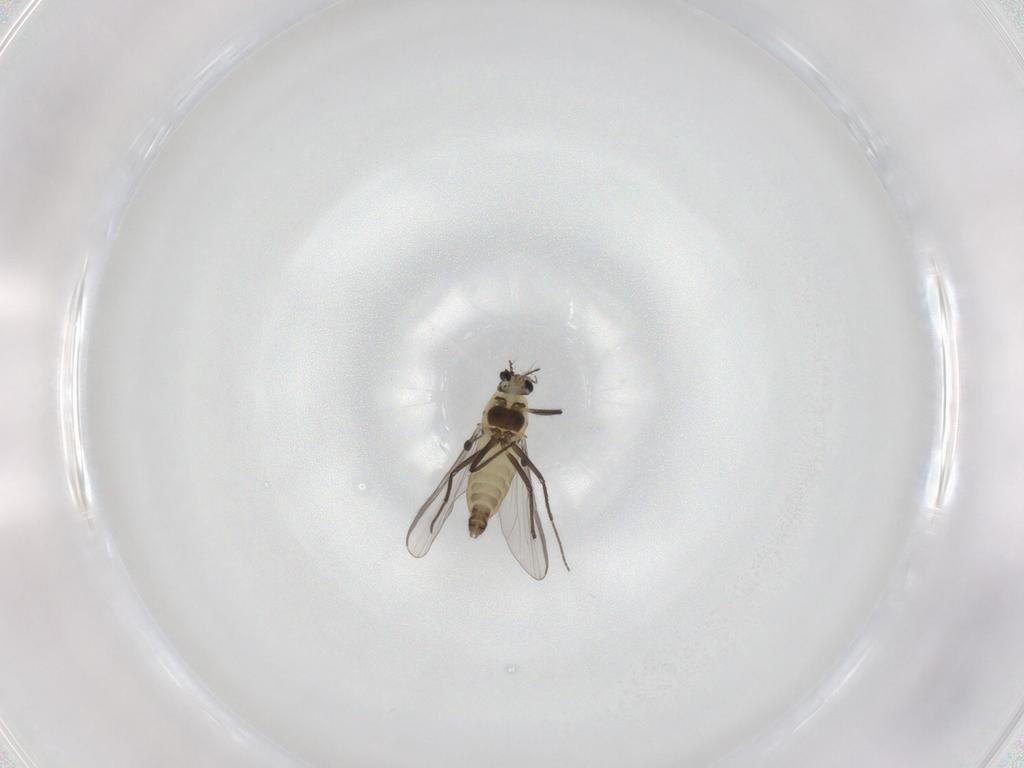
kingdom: Animalia
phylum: Arthropoda
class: Insecta
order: Diptera
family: Chironomidae
